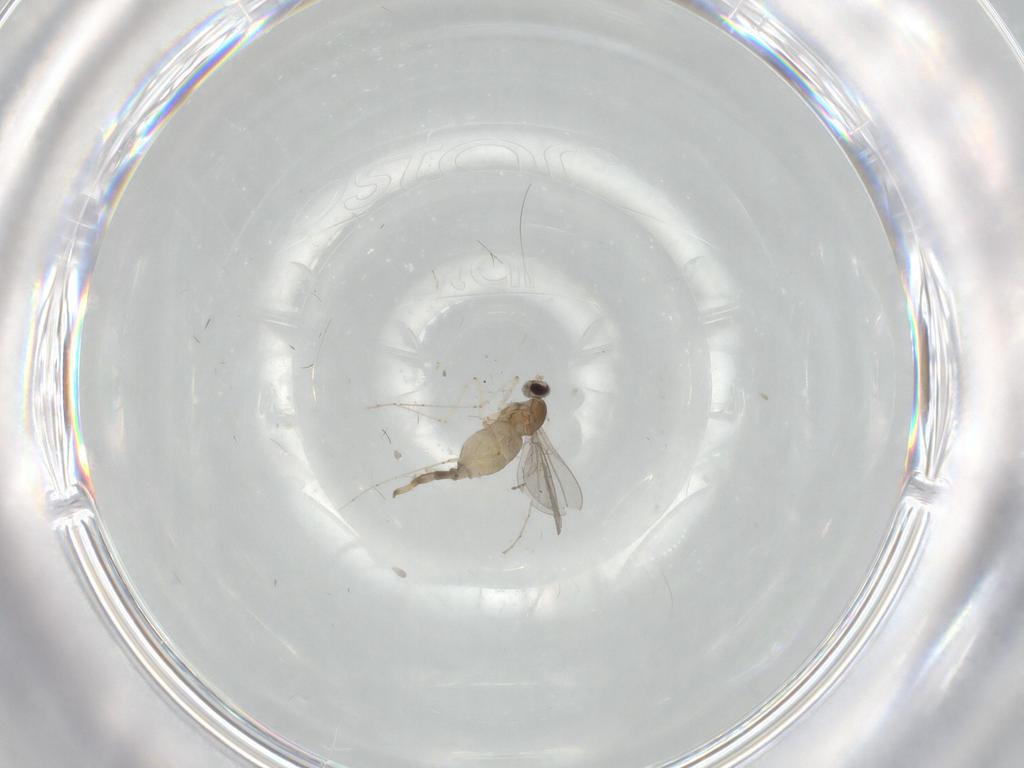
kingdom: Animalia
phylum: Arthropoda
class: Insecta
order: Diptera
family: Cecidomyiidae
